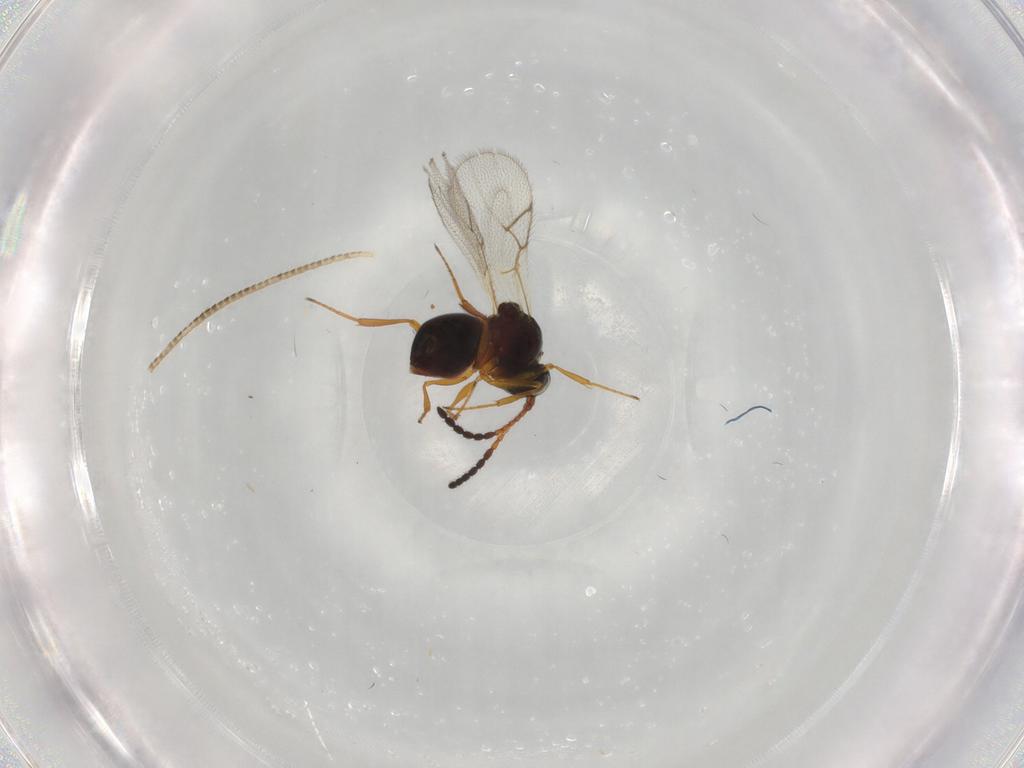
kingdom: Animalia
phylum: Arthropoda
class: Insecta
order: Hymenoptera
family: Figitidae
